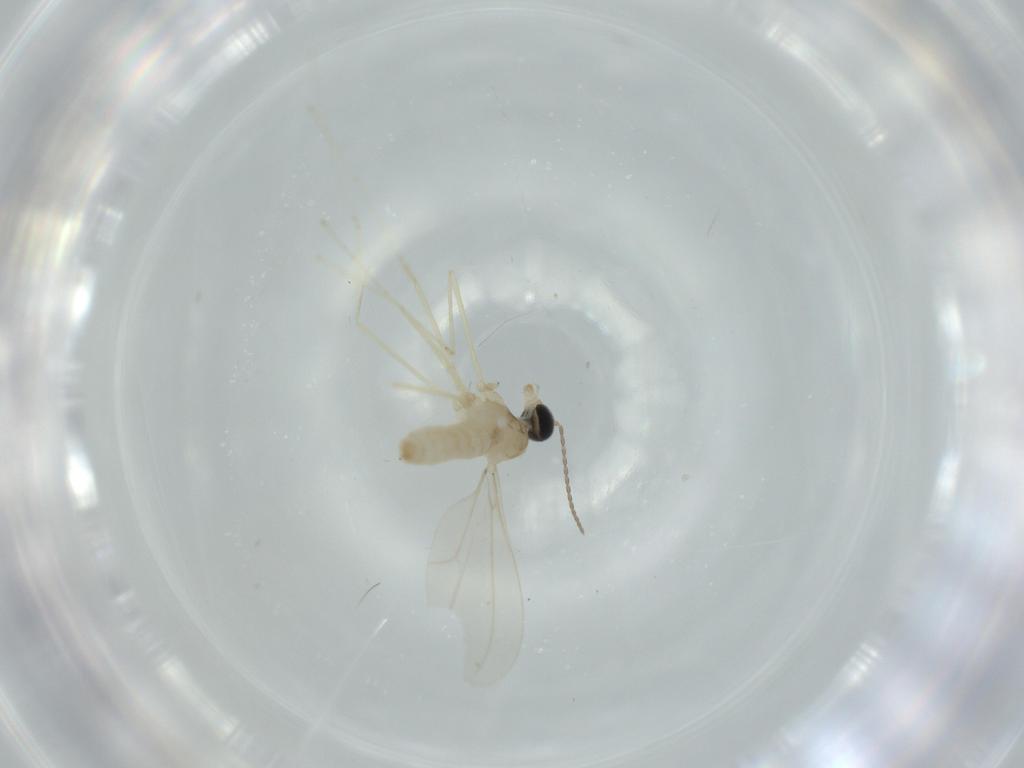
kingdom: Animalia
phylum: Arthropoda
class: Insecta
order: Diptera
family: Cecidomyiidae
